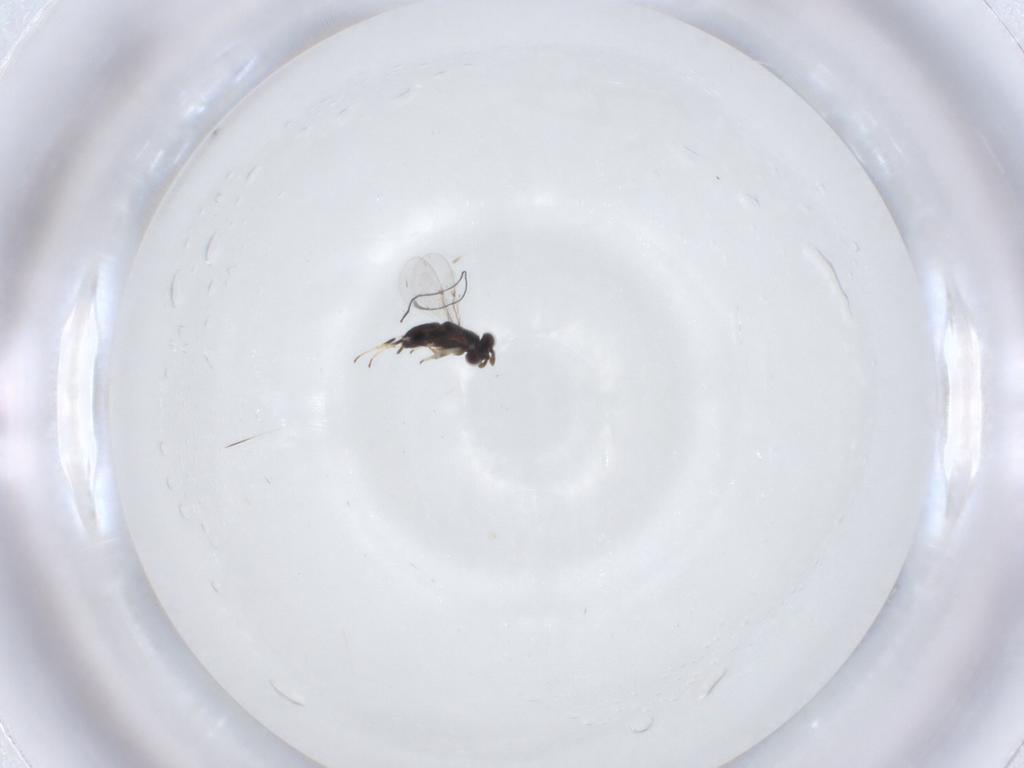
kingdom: Animalia
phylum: Arthropoda
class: Insecta
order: Hymenoptera
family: Encyrtidae
